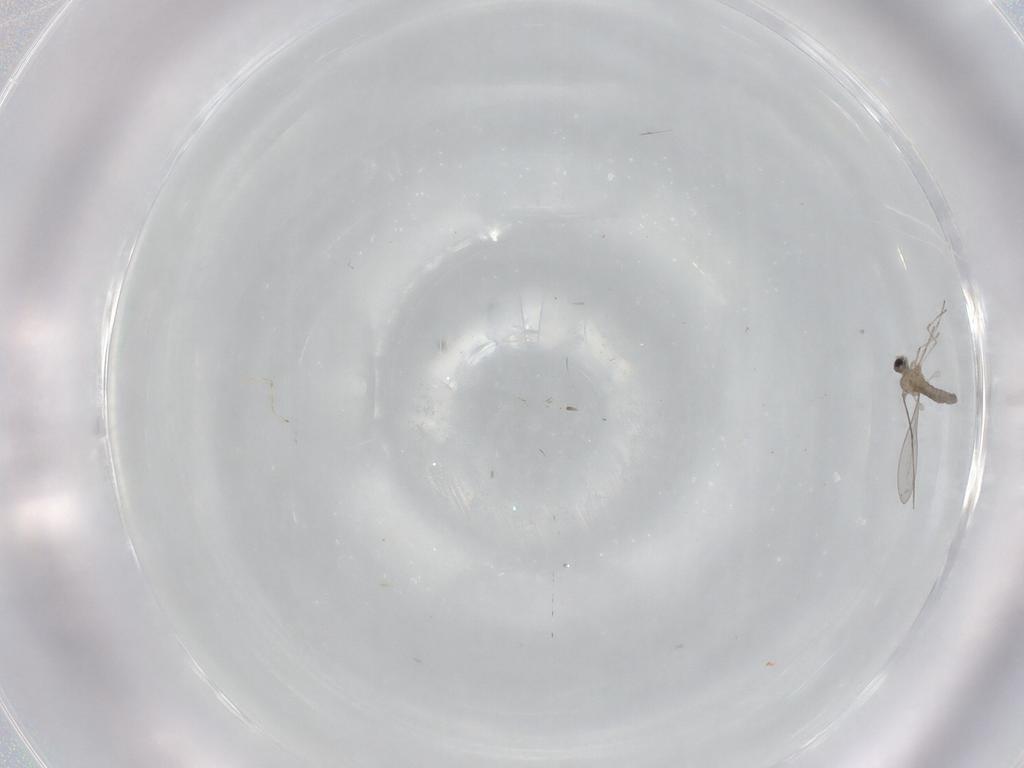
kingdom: Animalia
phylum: Arthropoda
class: Insecta
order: Diptera
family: Cecidomyiidae
